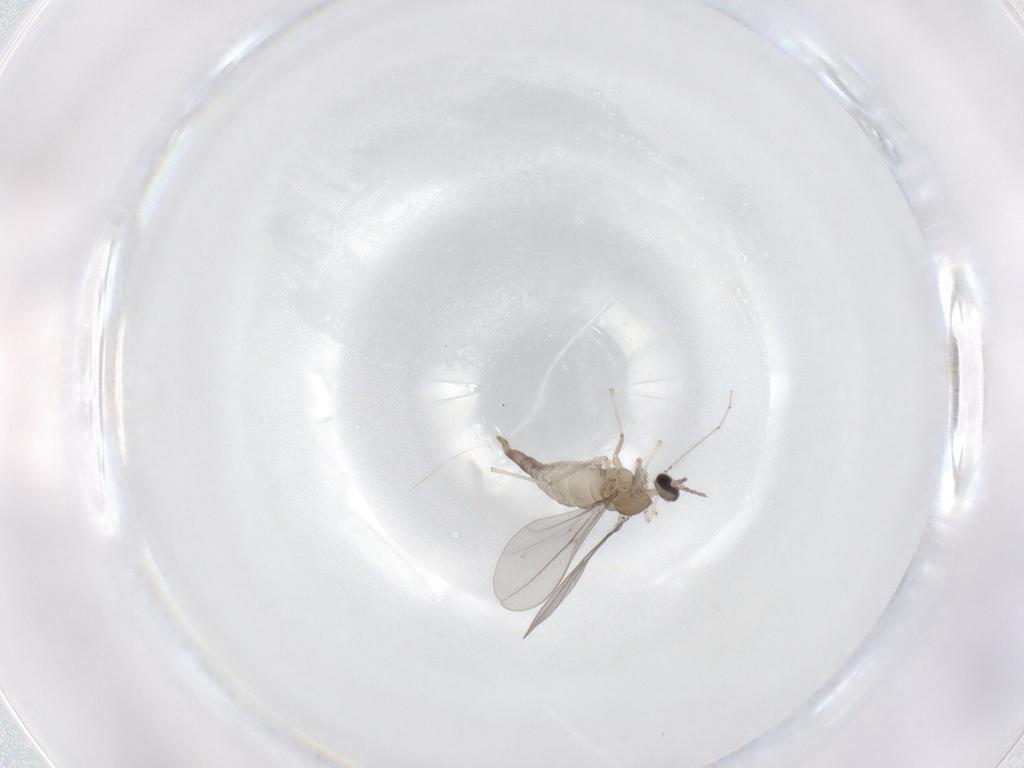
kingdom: Animalia
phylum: Arthropoda
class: Insecta
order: Diptera
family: Cecidomyiidae
